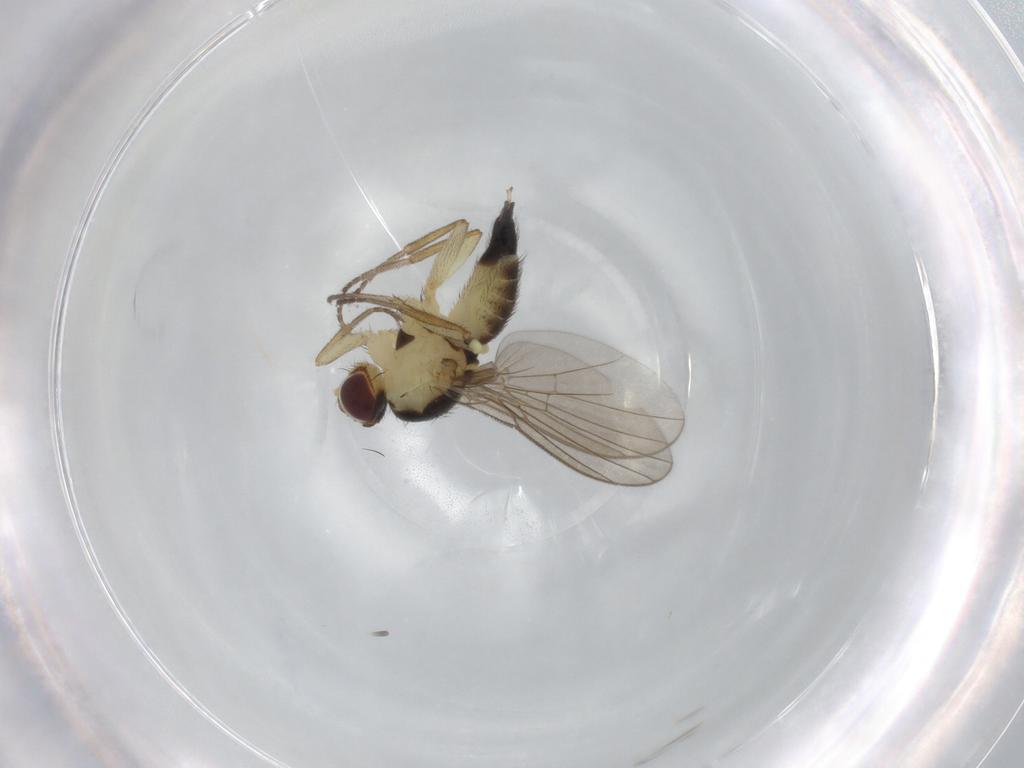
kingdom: Animalia
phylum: Arthropoda
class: Insecta
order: Diptera
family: Agromyzidae
